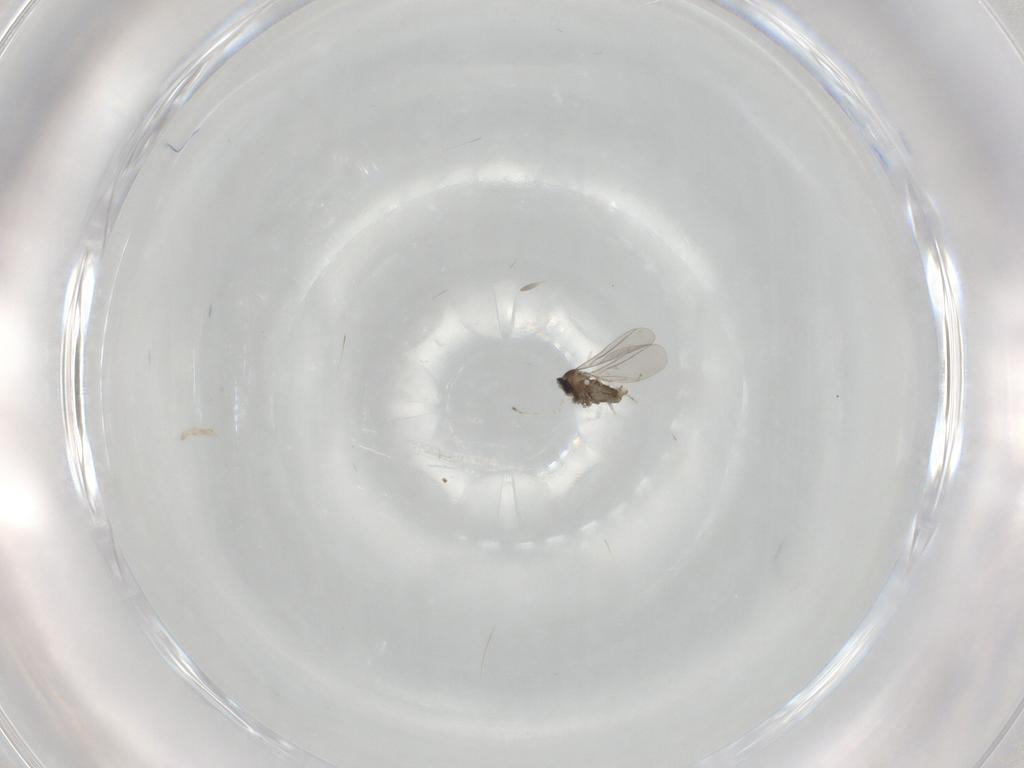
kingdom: Animalia
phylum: Arthropoda
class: Insecta
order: Diptera
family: Cecidomyiidae
